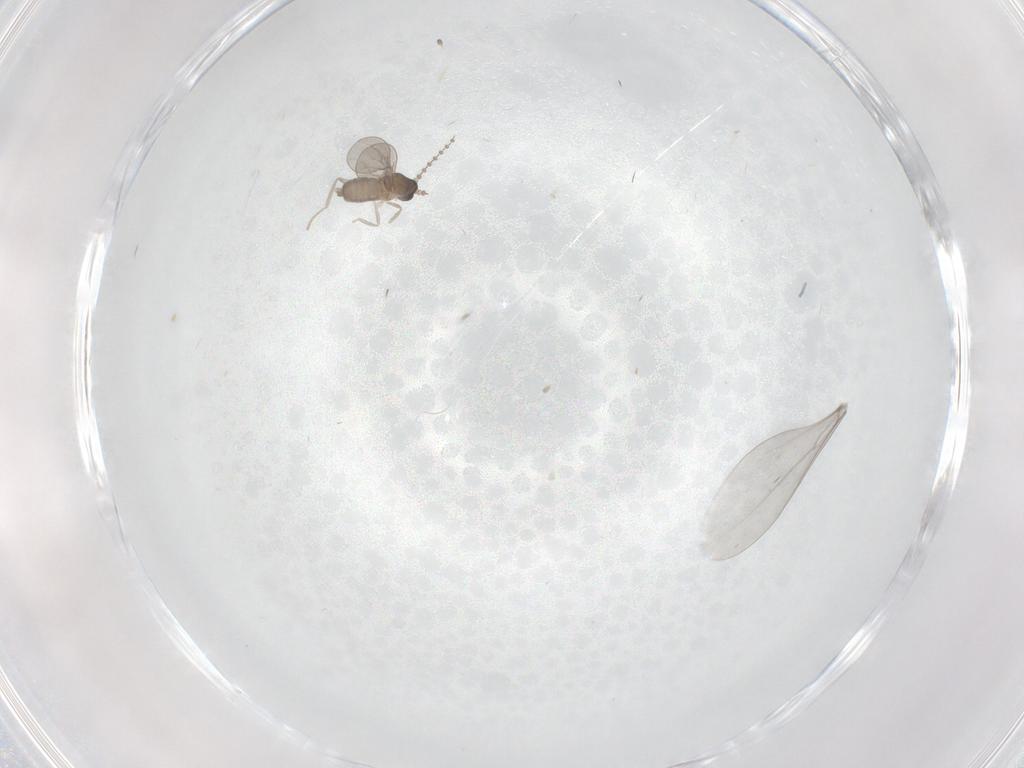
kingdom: Animalia
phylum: Arthropoda
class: Insecta
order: Diptera
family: Cecidomyiidae
